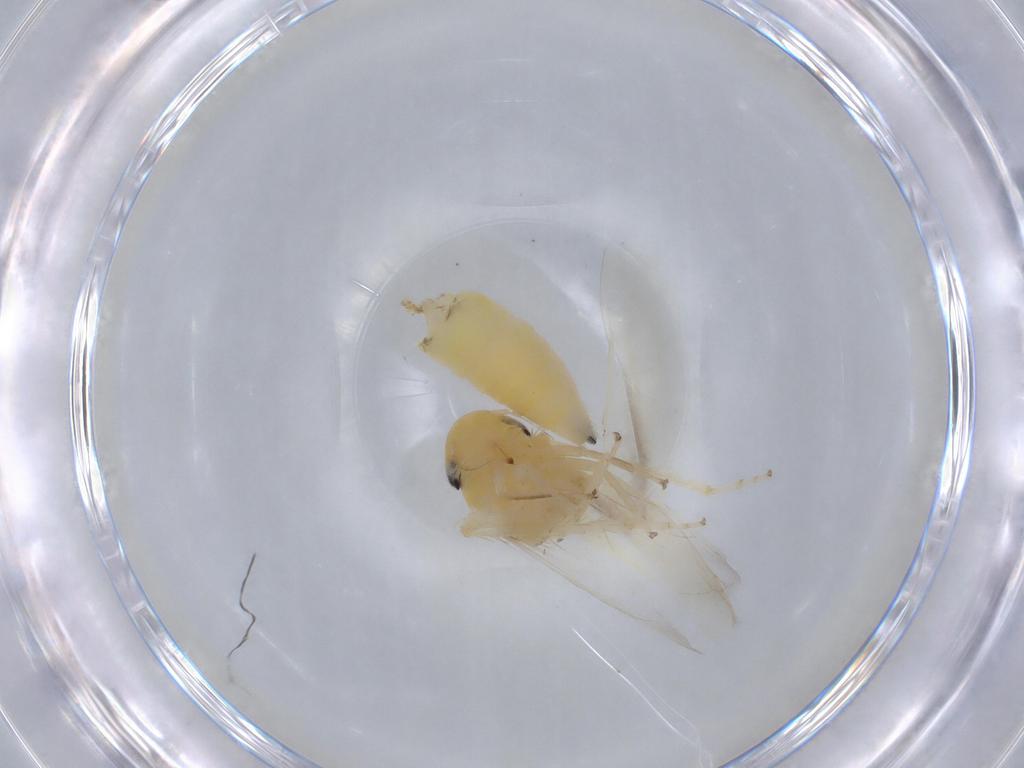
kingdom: Animalia
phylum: Arthropoda
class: Insecta
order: Hemiptera
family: Cicadellidae
